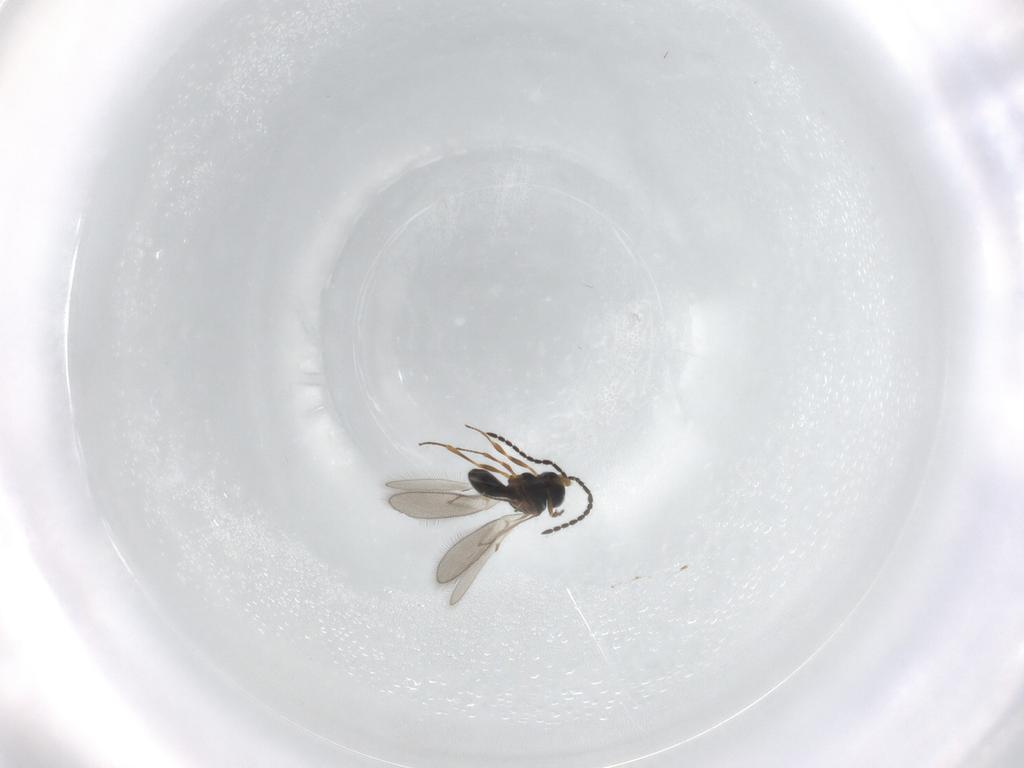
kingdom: Animalia
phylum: Arthropoda
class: Insecta
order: Hymenoptera
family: Scelionidae
